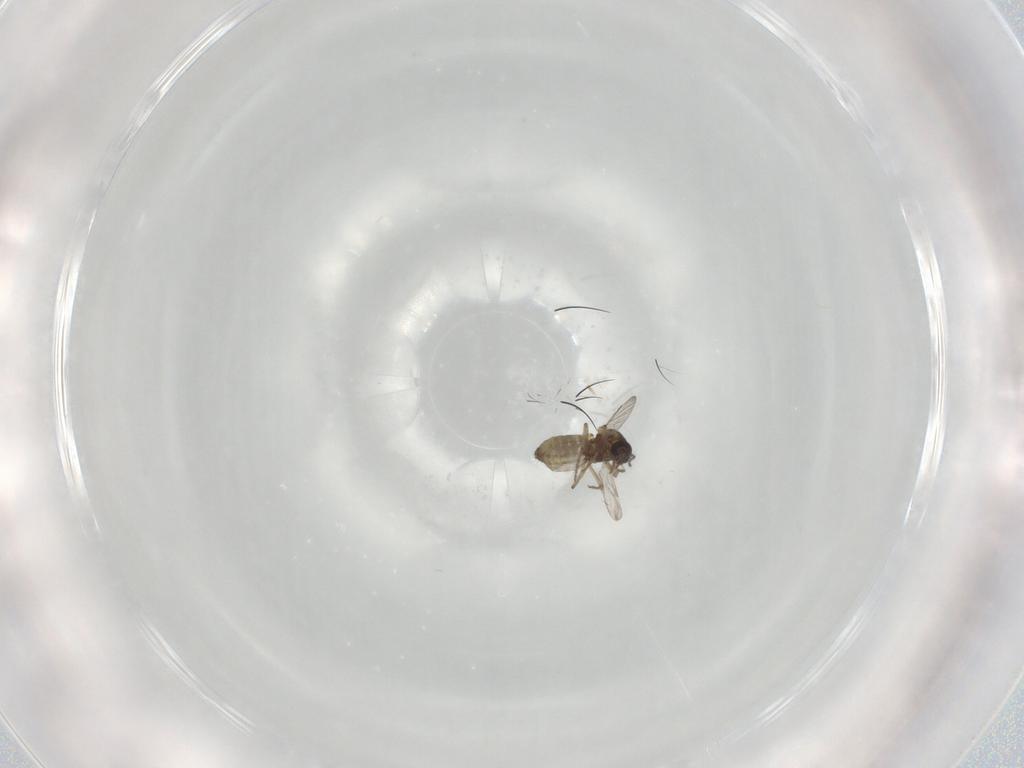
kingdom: Animalia
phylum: Arthropoda
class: Insecta
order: Diptera
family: Ceratopogonidae
